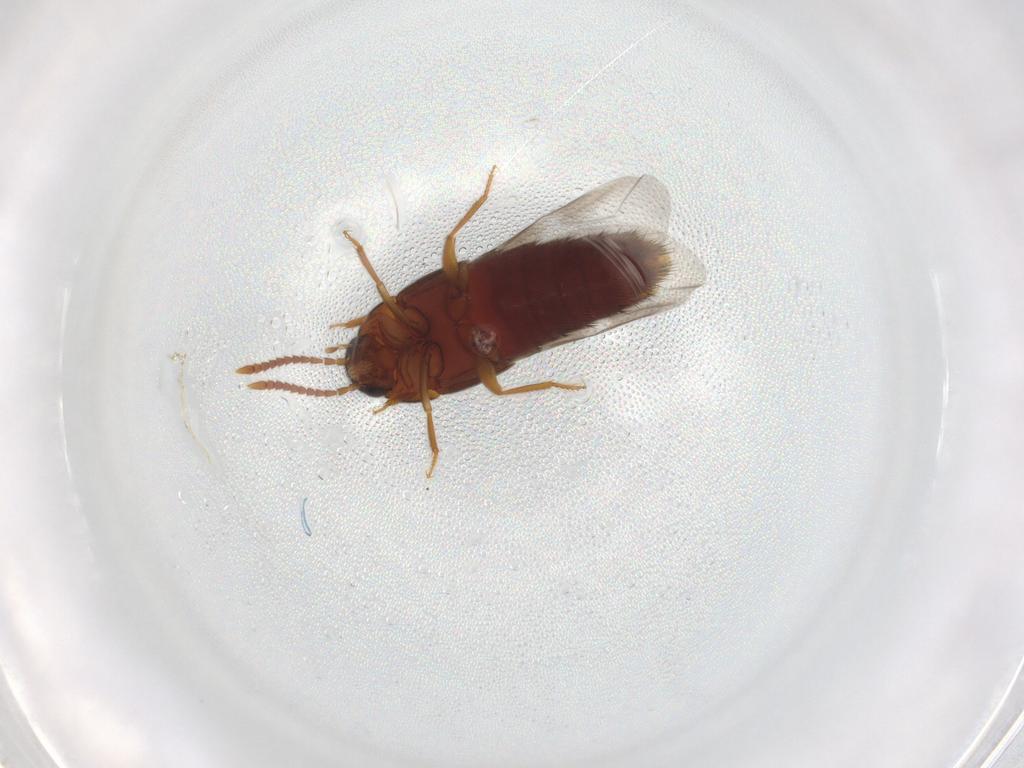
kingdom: Animalia
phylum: Arthropoda
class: Insecta
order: Coleoptera
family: Staphylinidae
